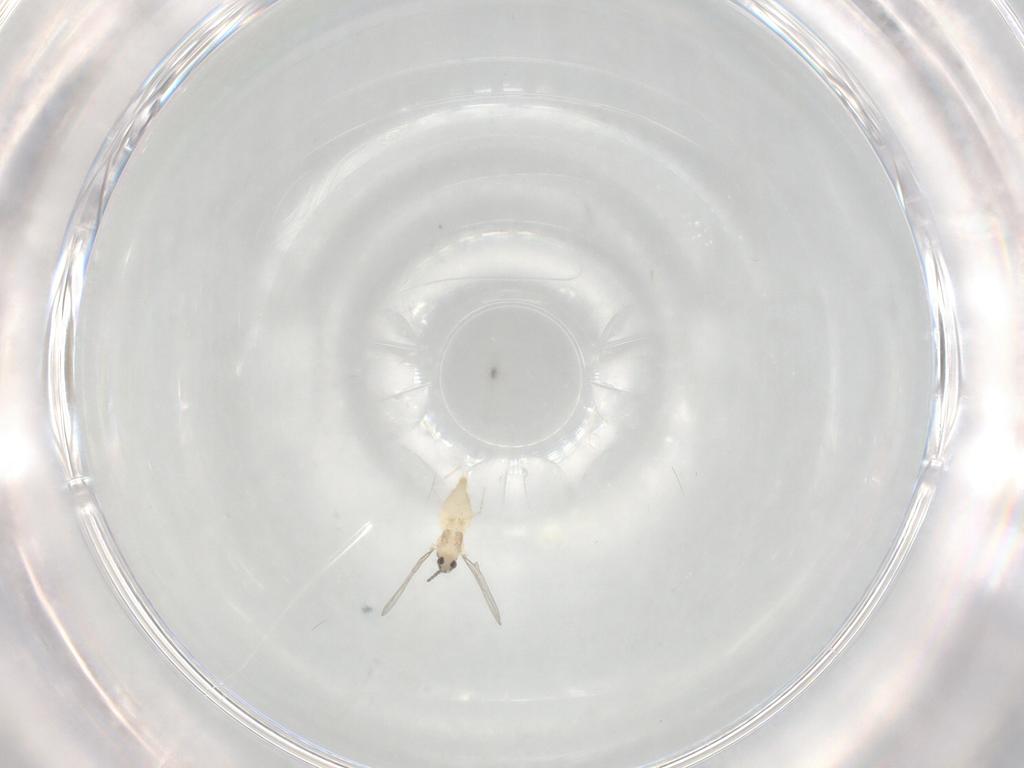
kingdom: Animalia
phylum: Arthropoda
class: Insecta
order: Diptera
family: Cecidomyiidae
